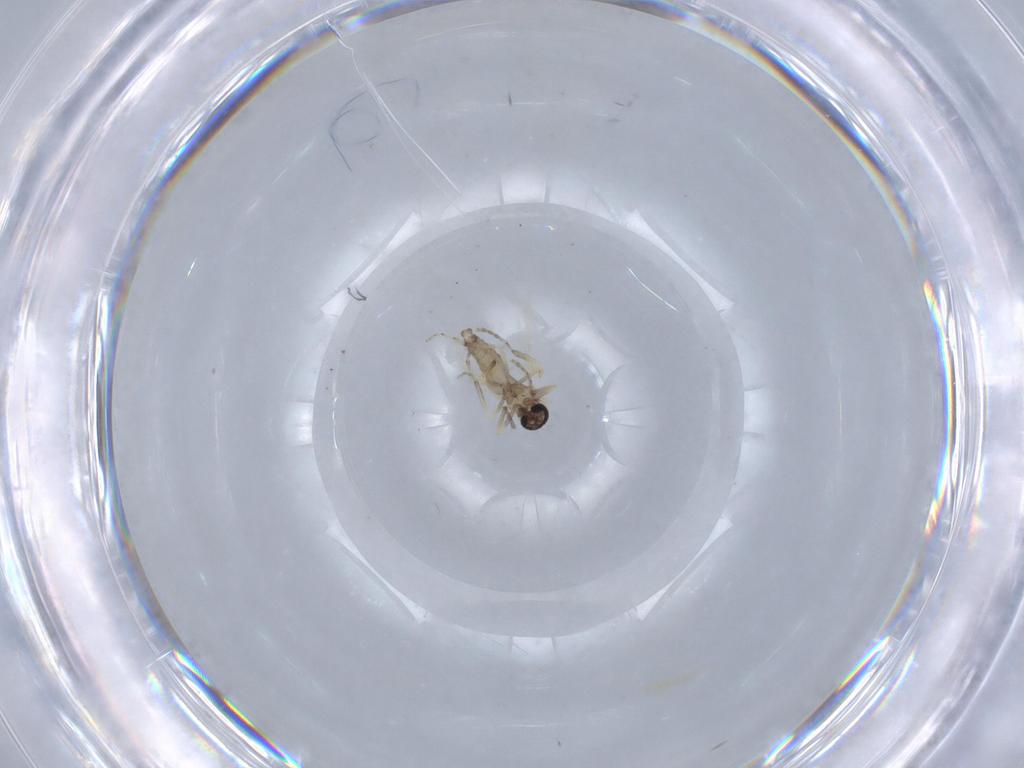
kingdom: Animalia
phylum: Arthropoda
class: Insecta
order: Diptera
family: Ceratopogonidae
